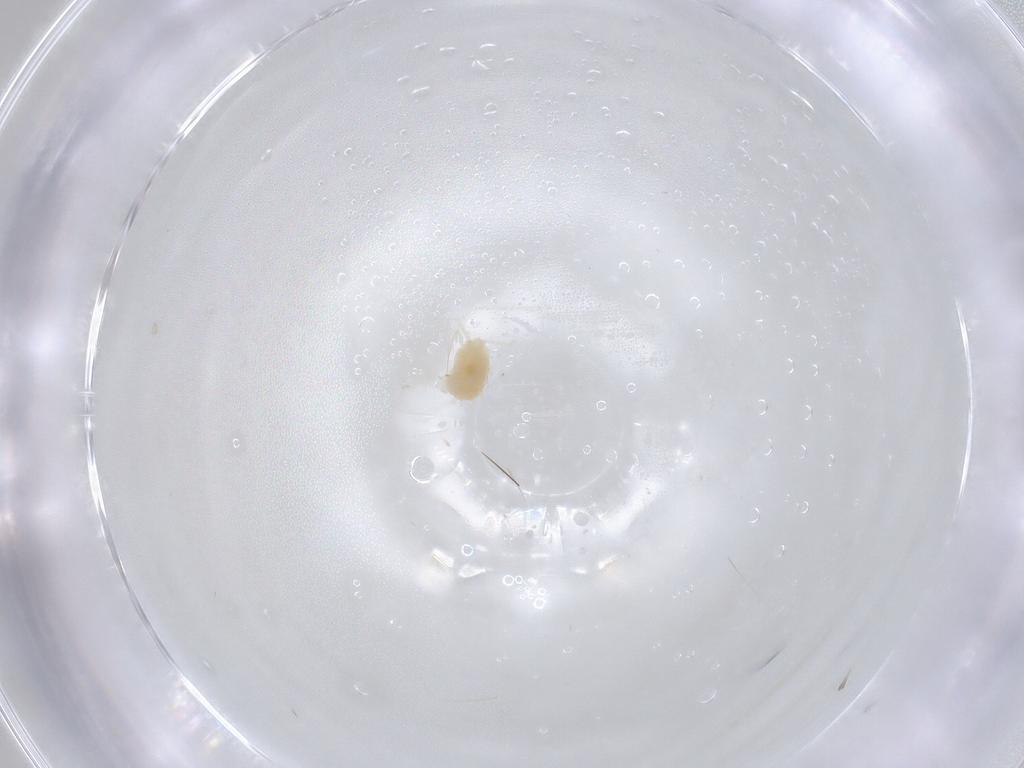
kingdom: Animalia
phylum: Arthropoda
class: Arachnida
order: Trombidiformes
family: Tetranychidae
